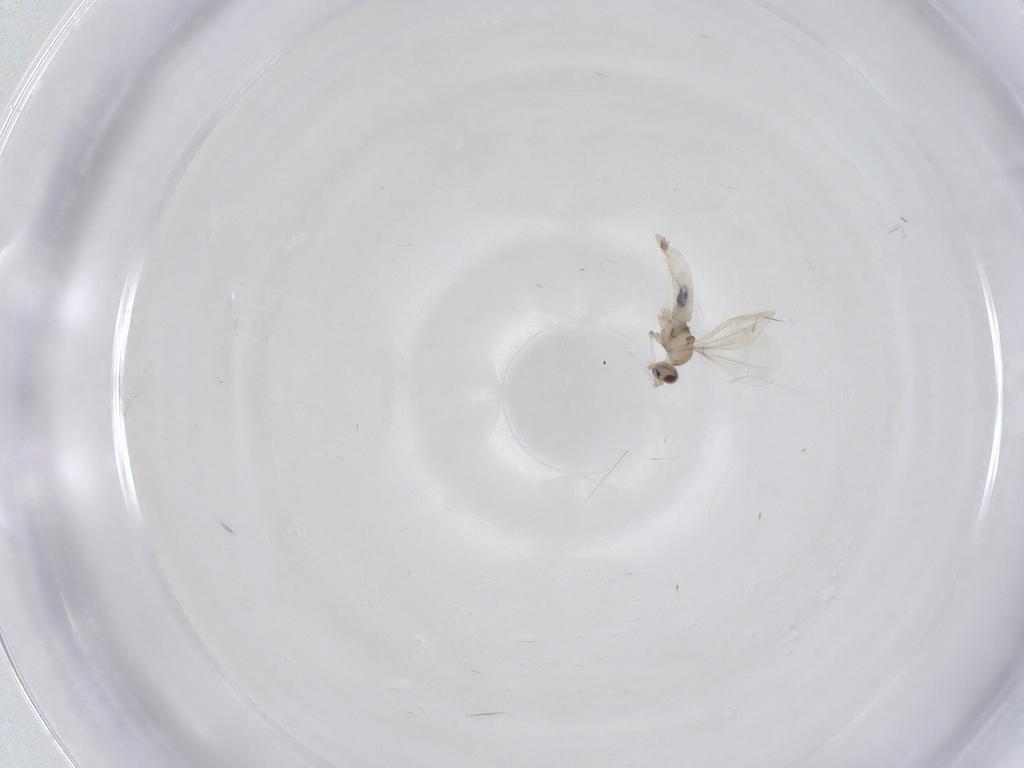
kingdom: Animalia
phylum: Arthropoda
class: Insecta
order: Diptera
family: Cecidomyiidae
